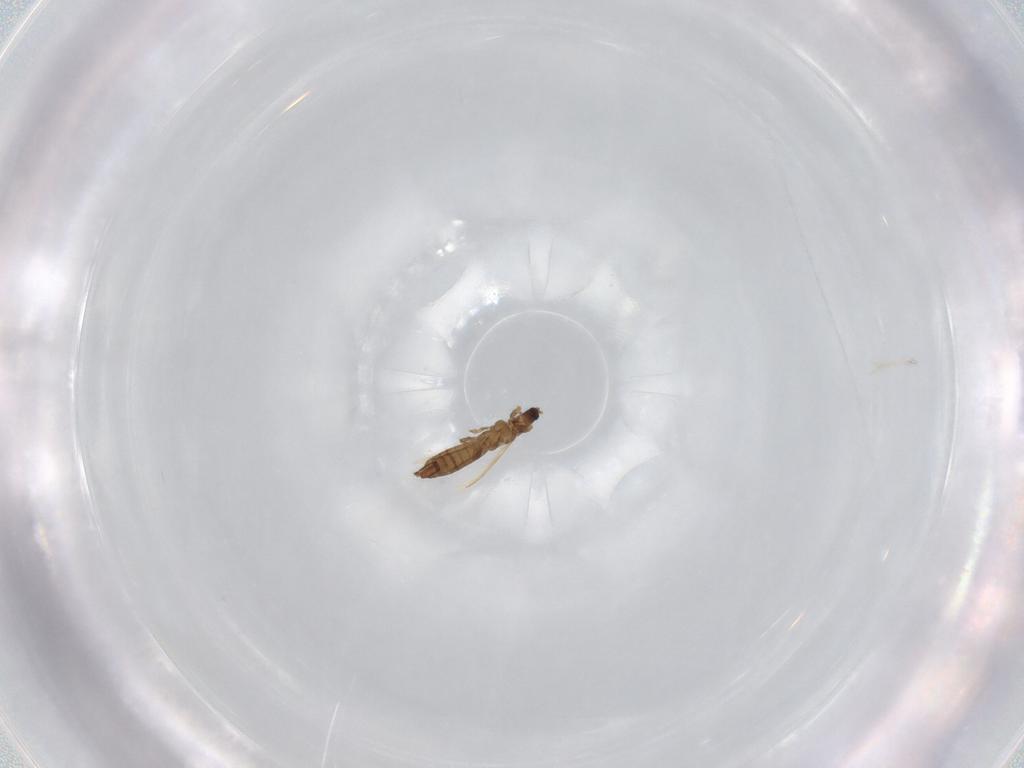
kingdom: Animalia
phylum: Arthropoda
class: Insecta
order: Thysanoptera
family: Thripidae
